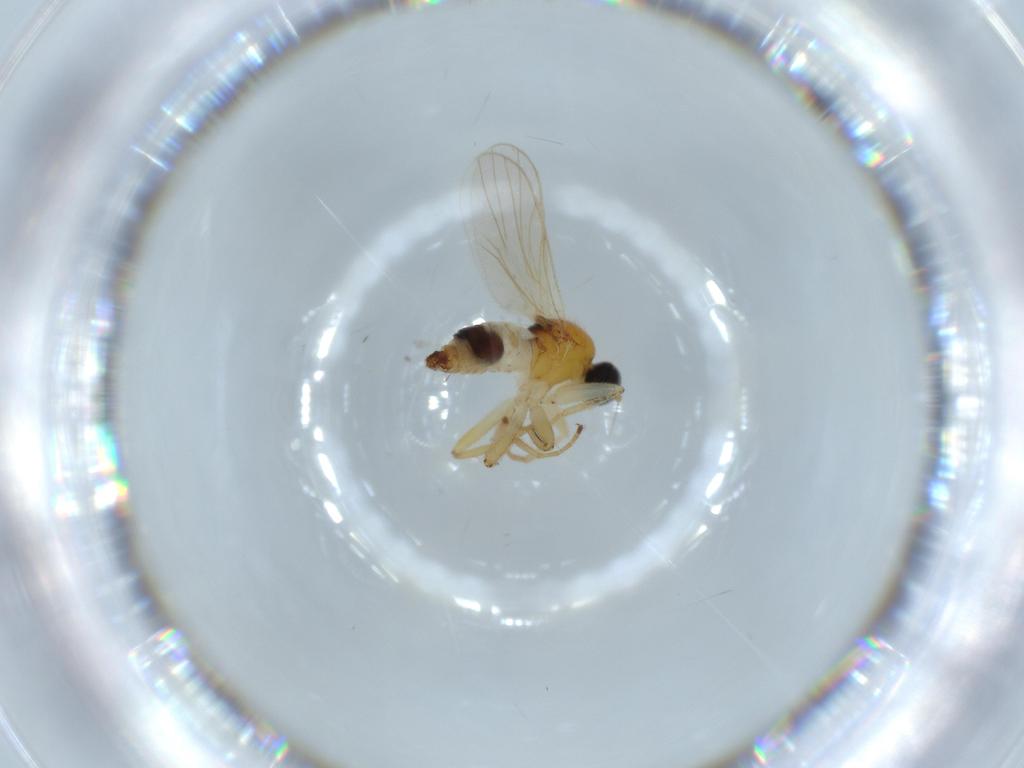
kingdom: Animalia
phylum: Arthropoda
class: Insecta
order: Diptera
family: Hybotidae
